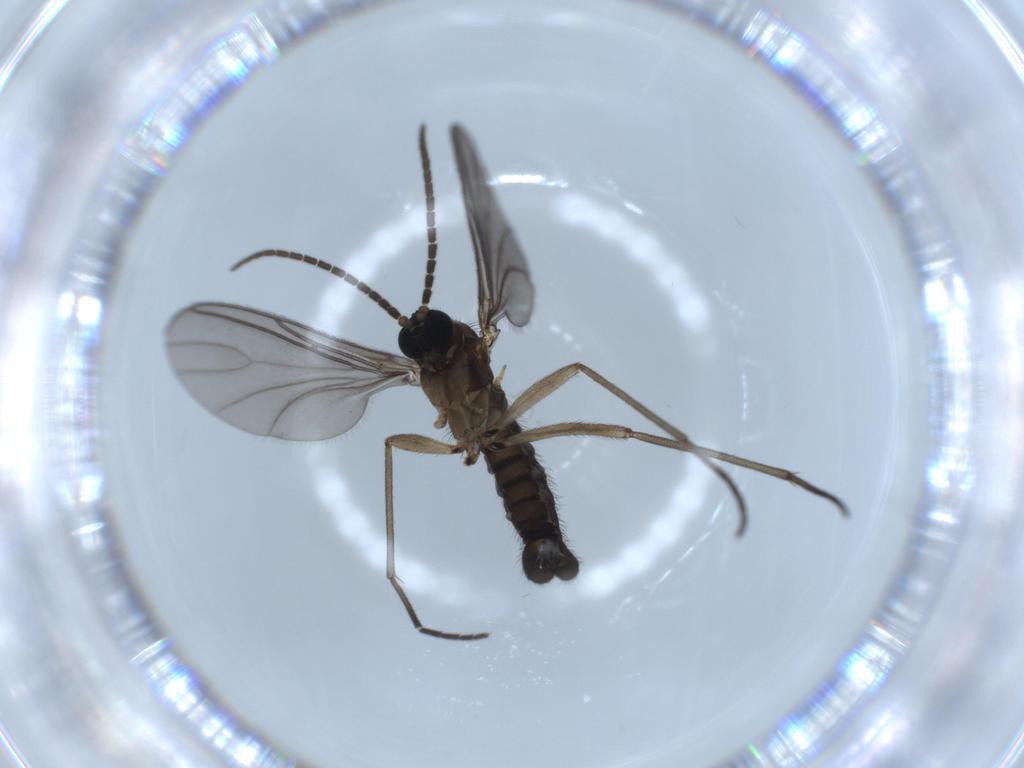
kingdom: Animalia
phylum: Arthropoda
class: Insecta
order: Diptera
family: Sciaridae
